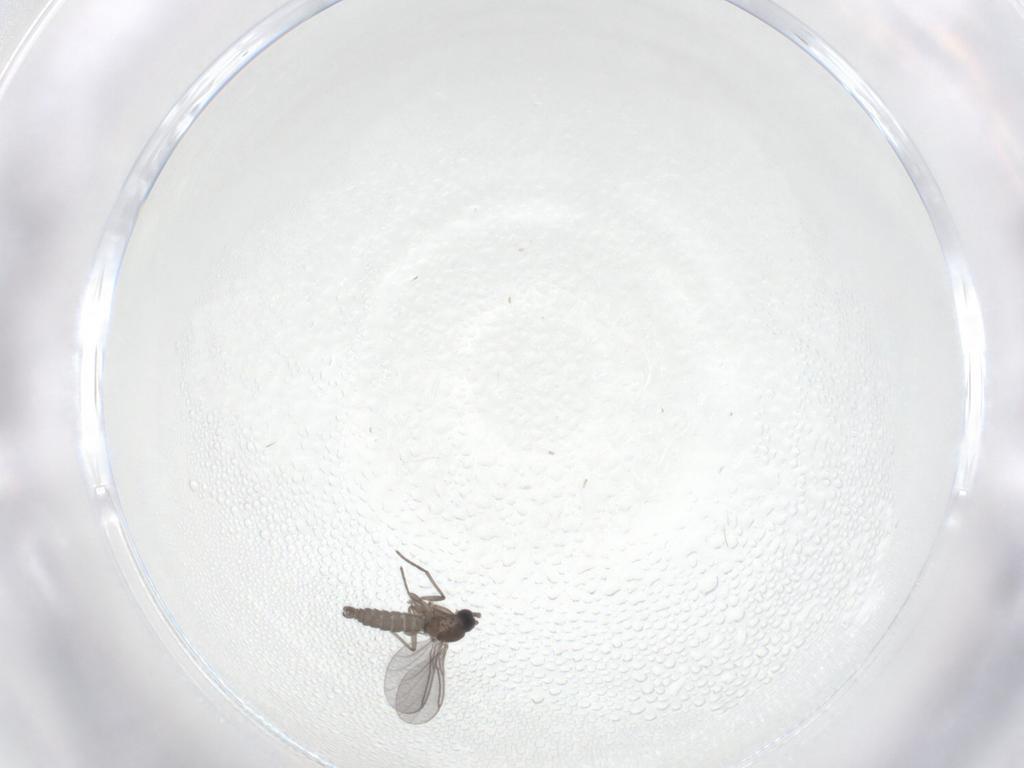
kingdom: Animalia
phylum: Arthropoda
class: Insecta
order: Diptera
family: Sciaridae
